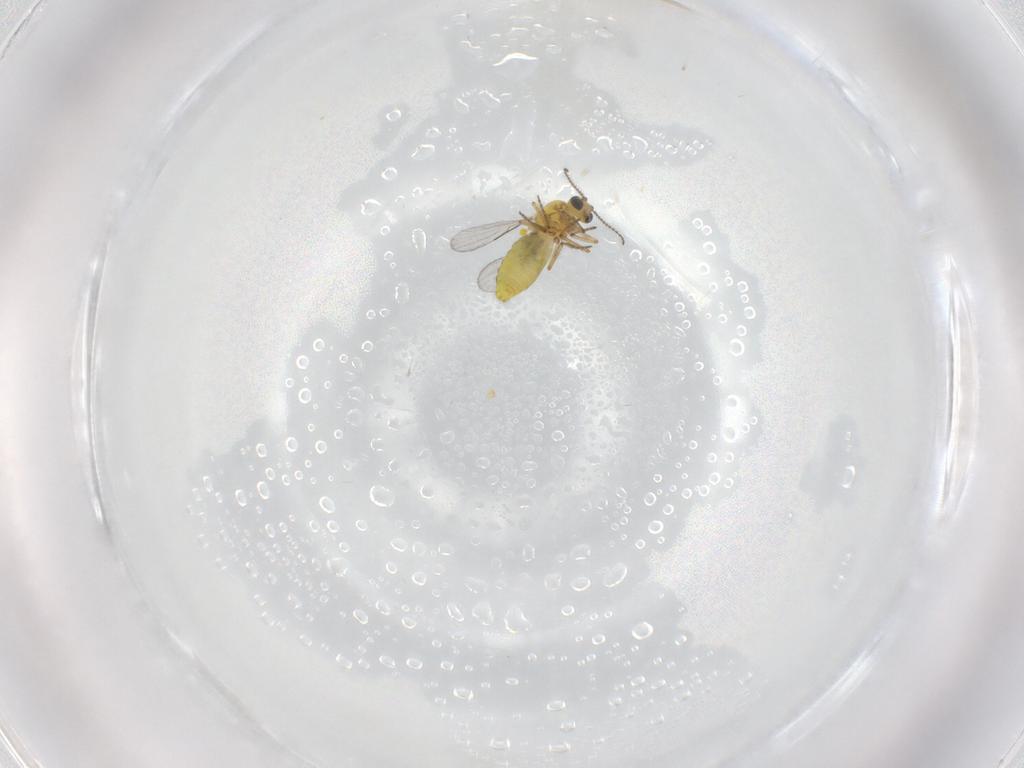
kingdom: Animalia
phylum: Arthropoda
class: Insecta
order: Diptera
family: Ceratopogonidae
